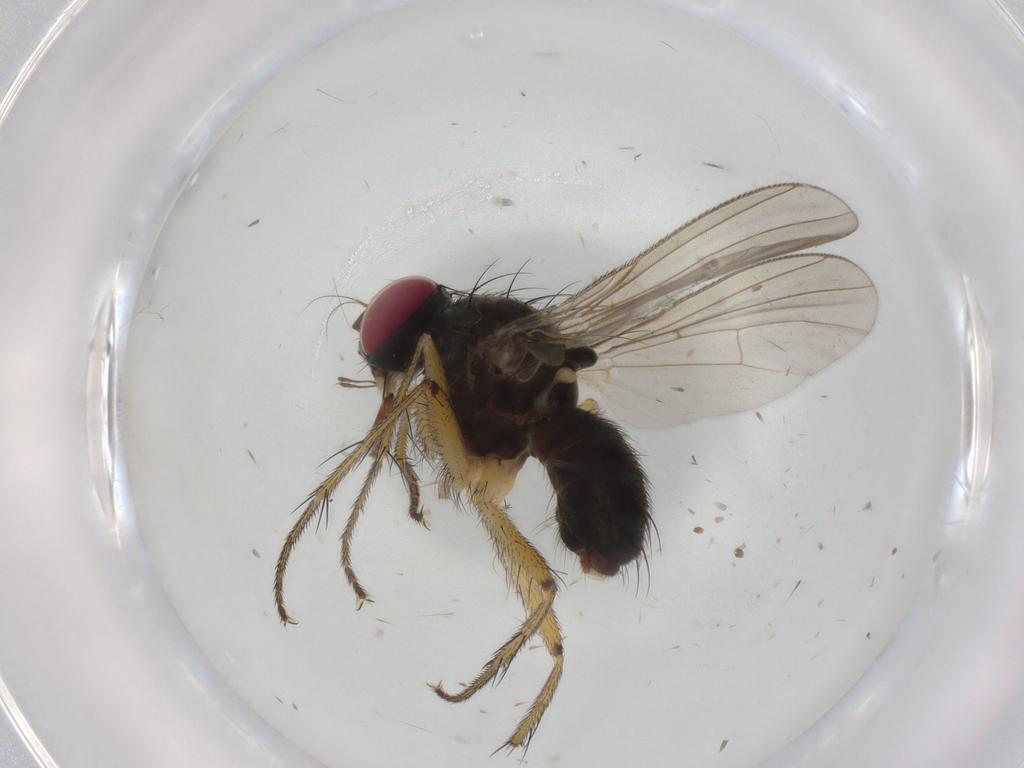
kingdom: Animalia
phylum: Arthropoda
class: Insecta
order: Diptera
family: Muscidae
